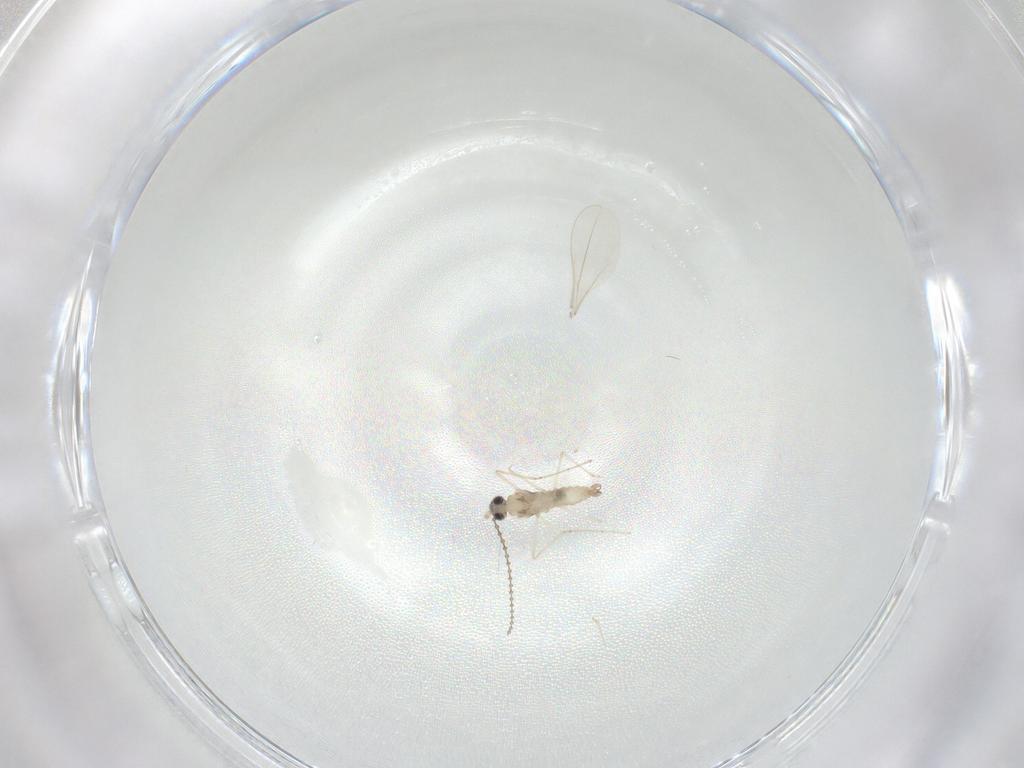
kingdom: Animalia
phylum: Arthropoda
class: Insecta
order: Diptera
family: Cecidomyiidae
